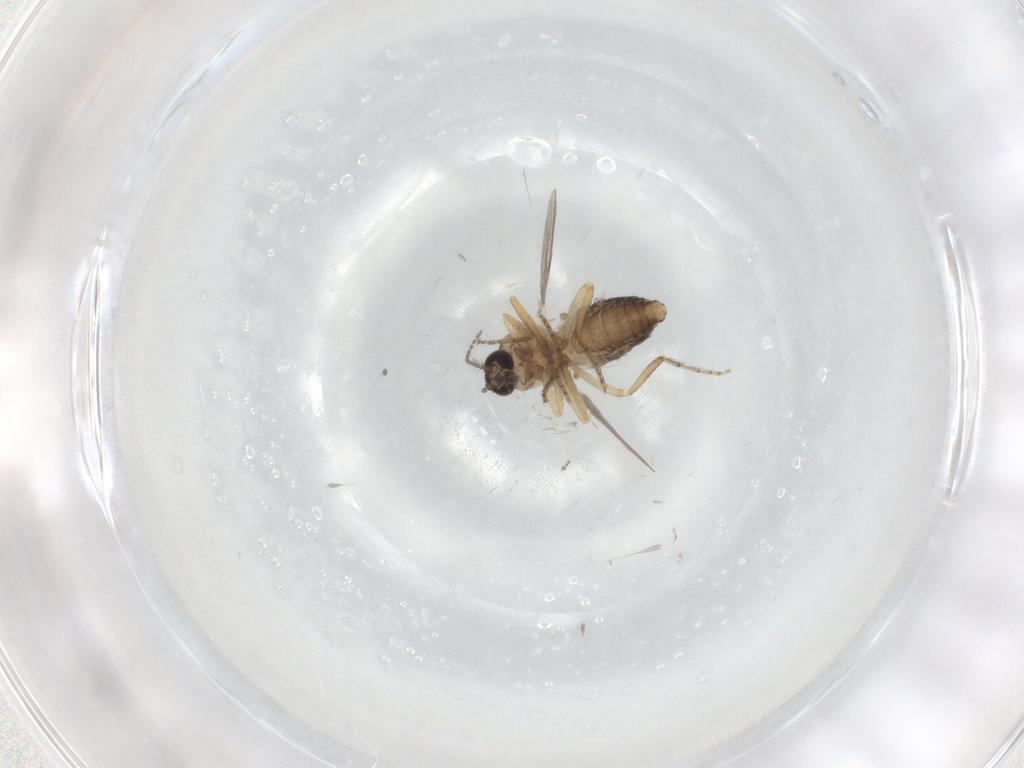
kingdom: Animalia
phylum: Arthropoda
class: Insecta
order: Diptera
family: Ceratopogonidae
